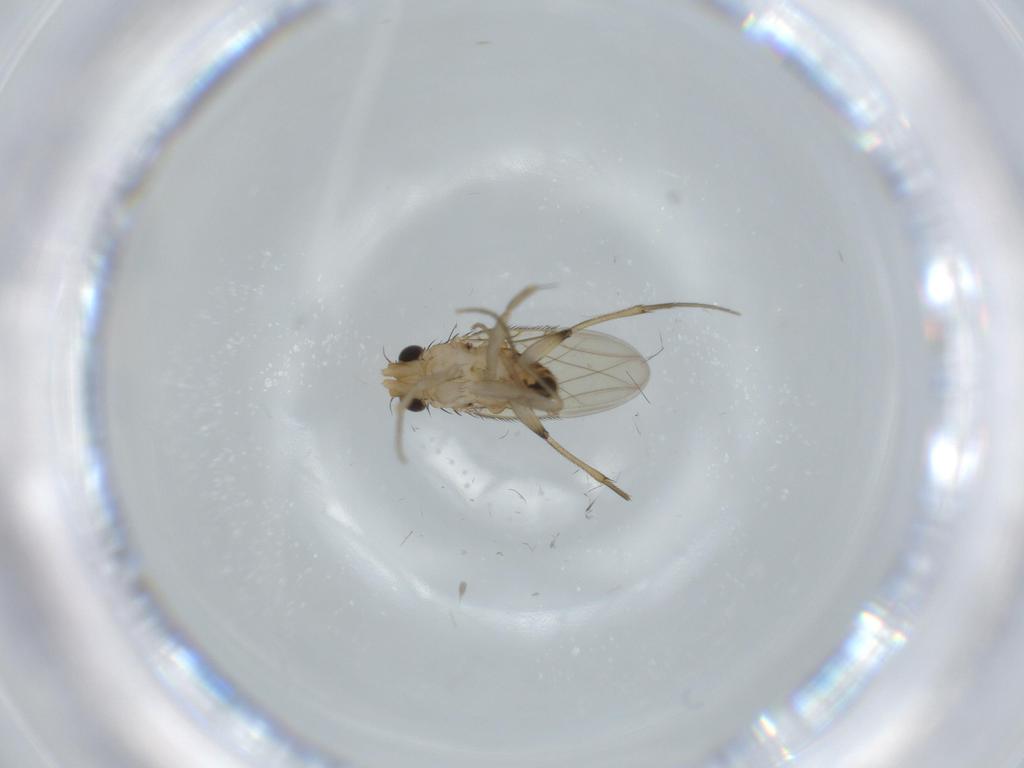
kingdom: Animalia
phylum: Arthropoda
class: Insecta
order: Diptera
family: Phoridae
